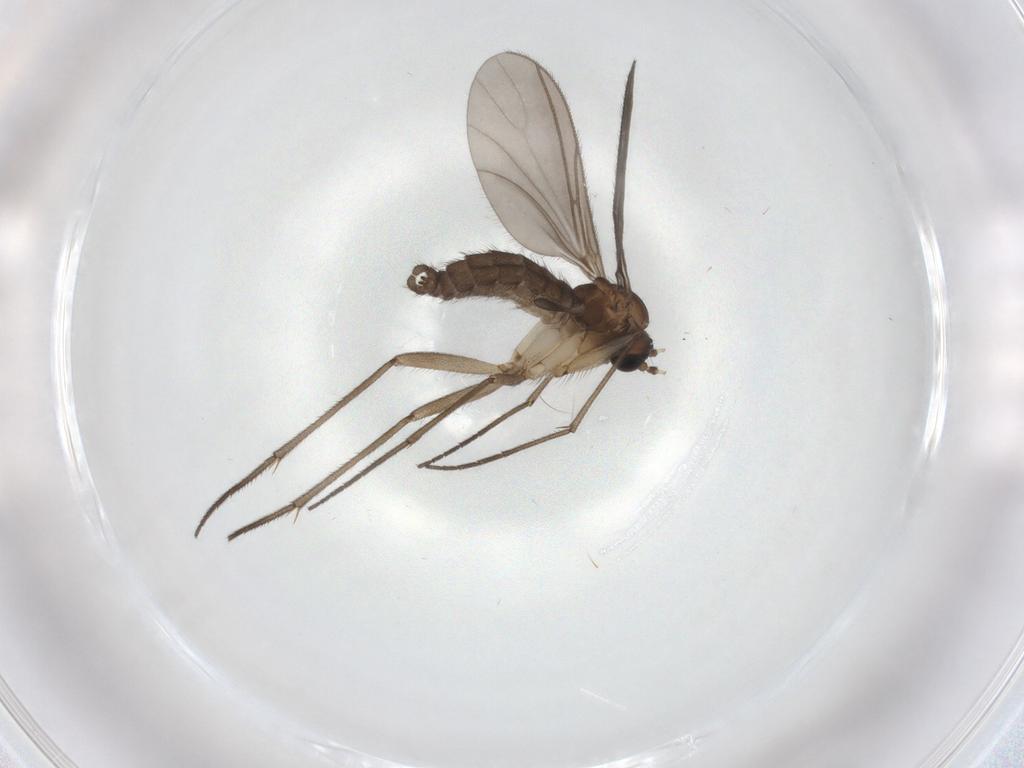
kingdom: Animalia
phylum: Arthropoda
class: Insecta
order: Diptera
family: Sciaridae
